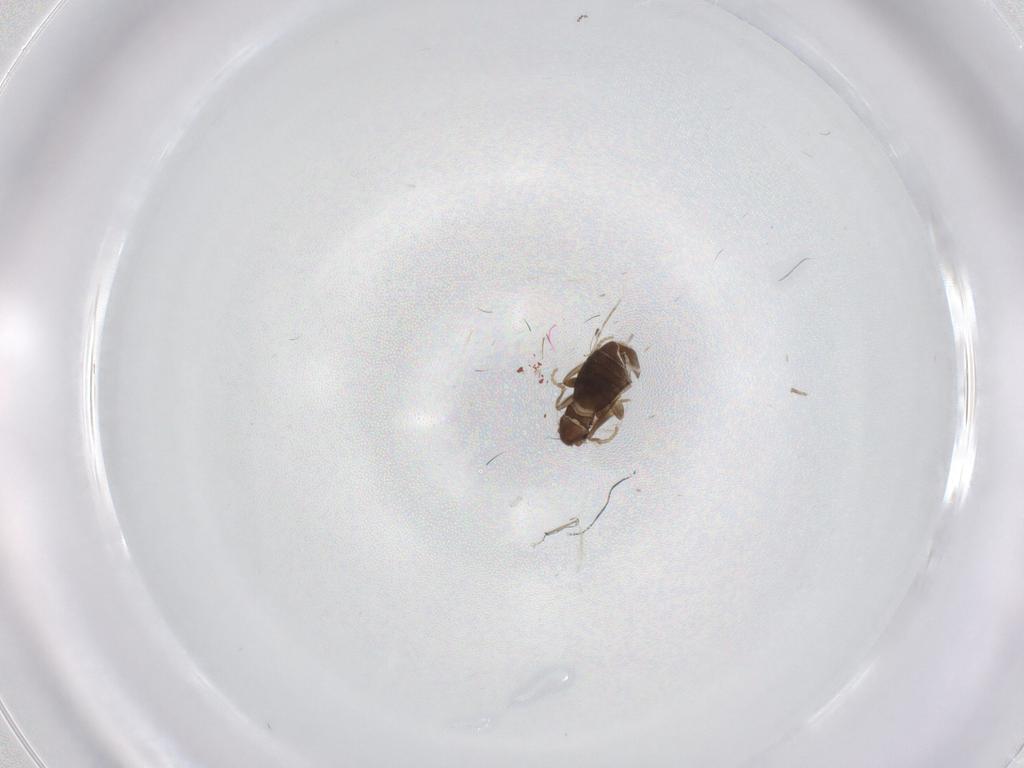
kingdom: Animalia
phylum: Arthropoda
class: Insecta
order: Diptera
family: Cecidomyiidae
